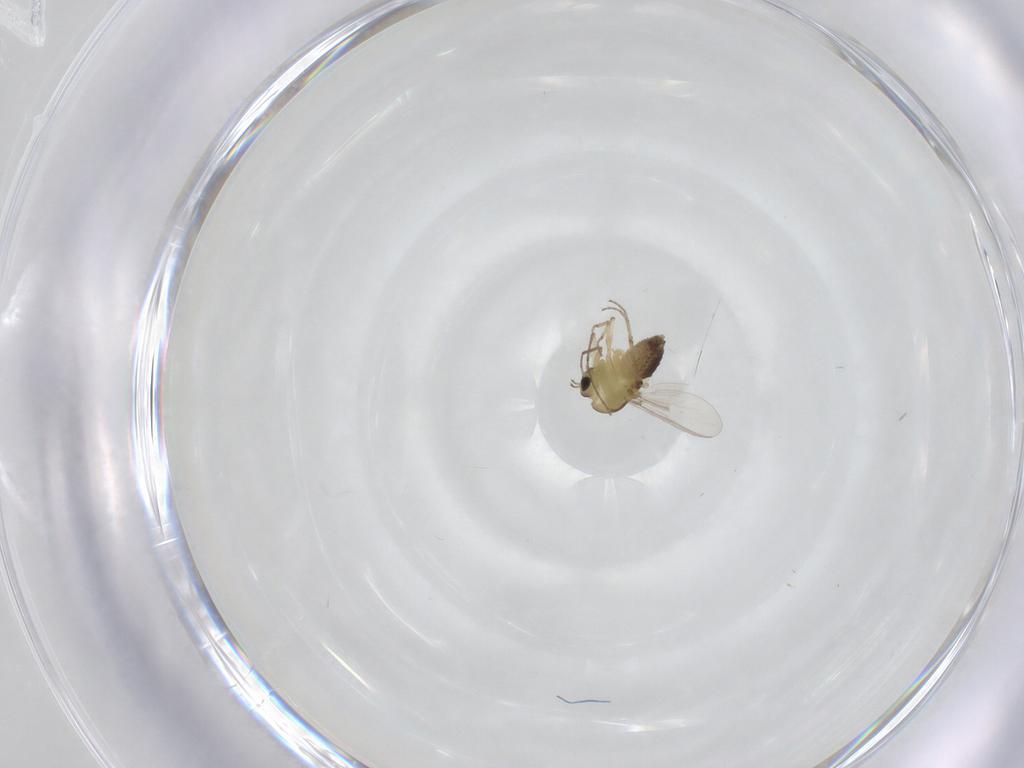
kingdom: Animalia
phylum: Arthropoda
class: Insecta
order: Diptera
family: Chironomidae
